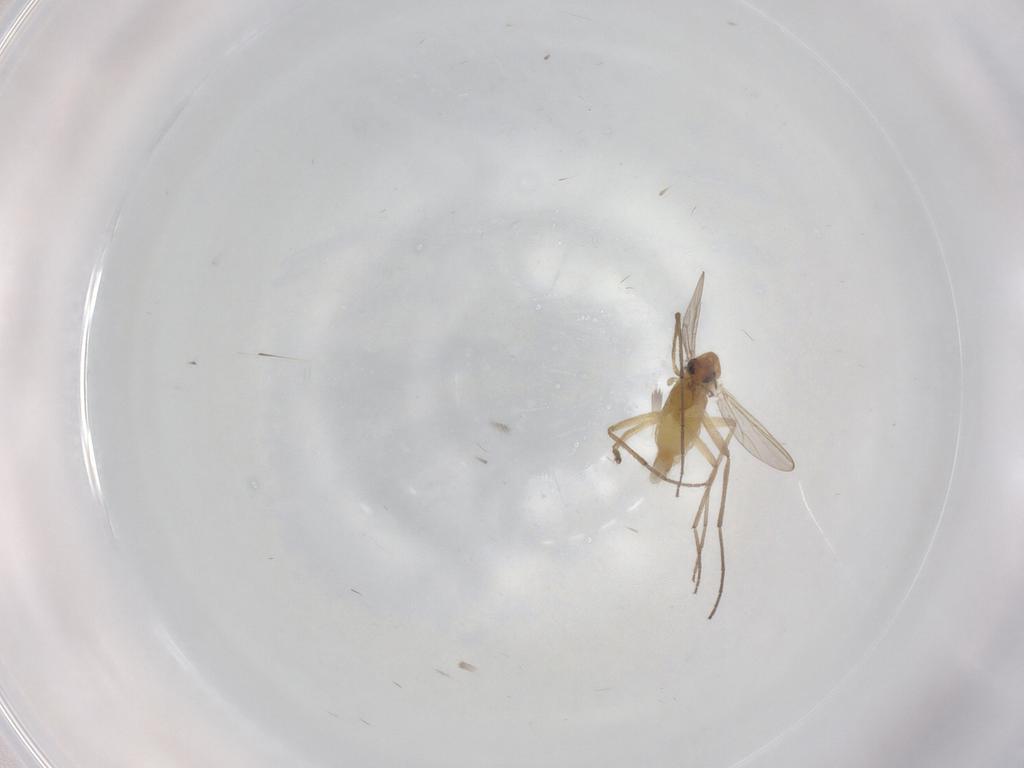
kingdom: Animalia
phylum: Arthropoda
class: Insecta
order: Diptera
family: Chironomidae
